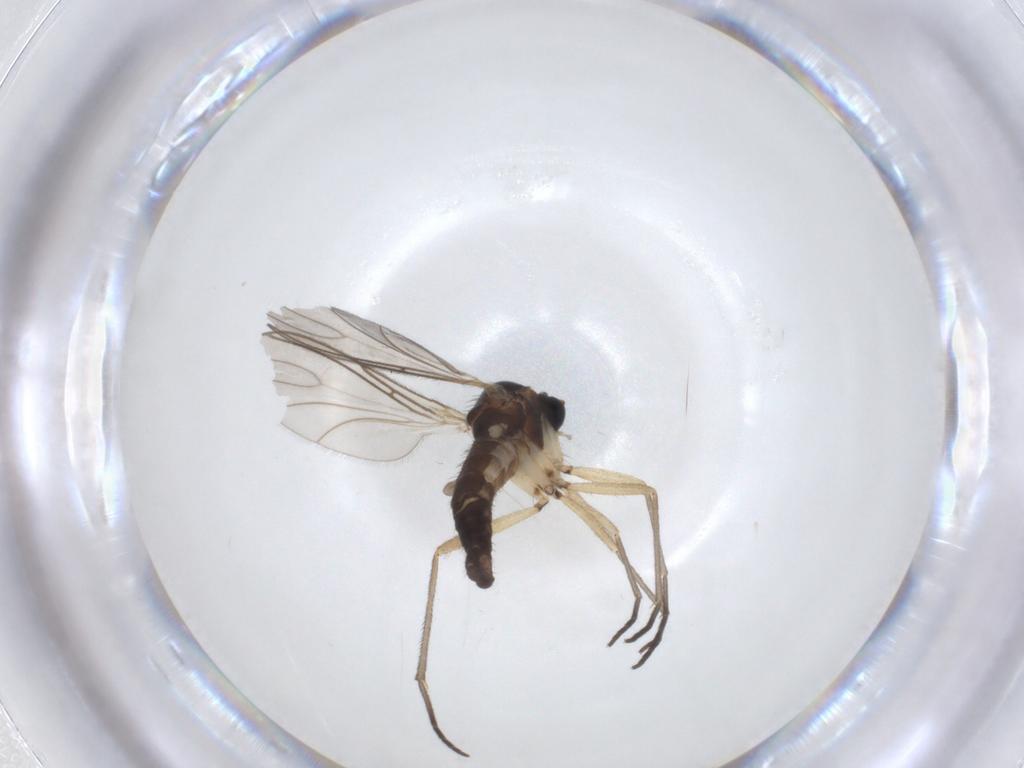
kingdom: Animalia
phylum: Arthropoda
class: Insecta
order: Diptera
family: Sciaridae
